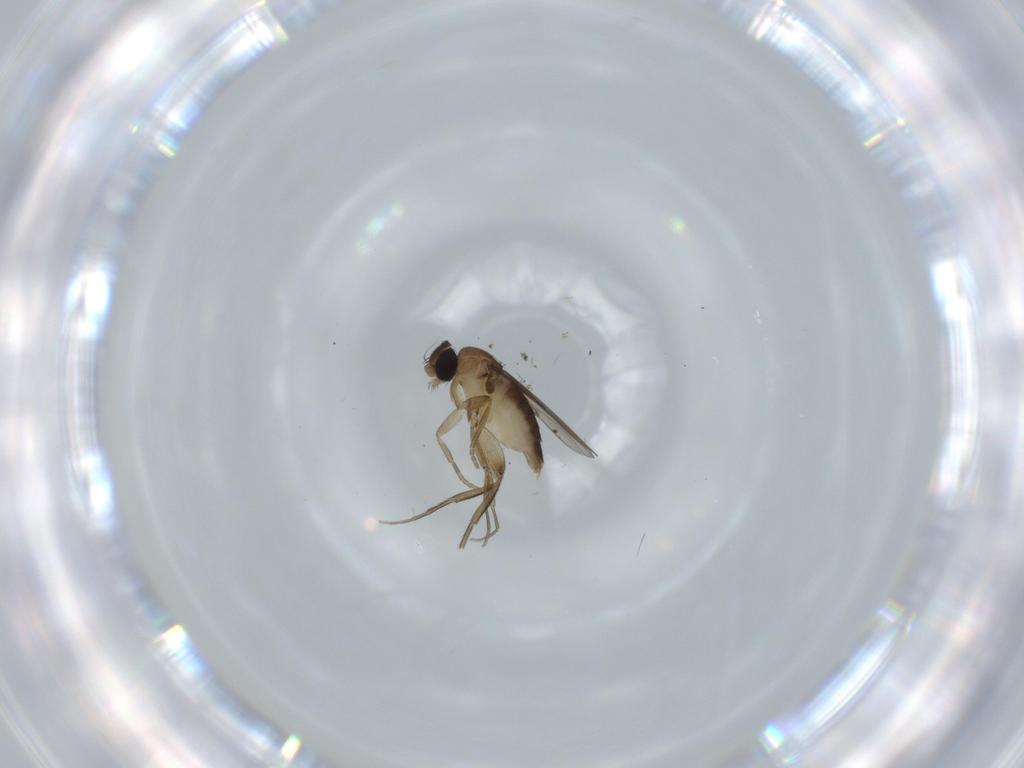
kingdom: Animalia
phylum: Arthropoda
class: Insecta
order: Diptera
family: Phoridae
